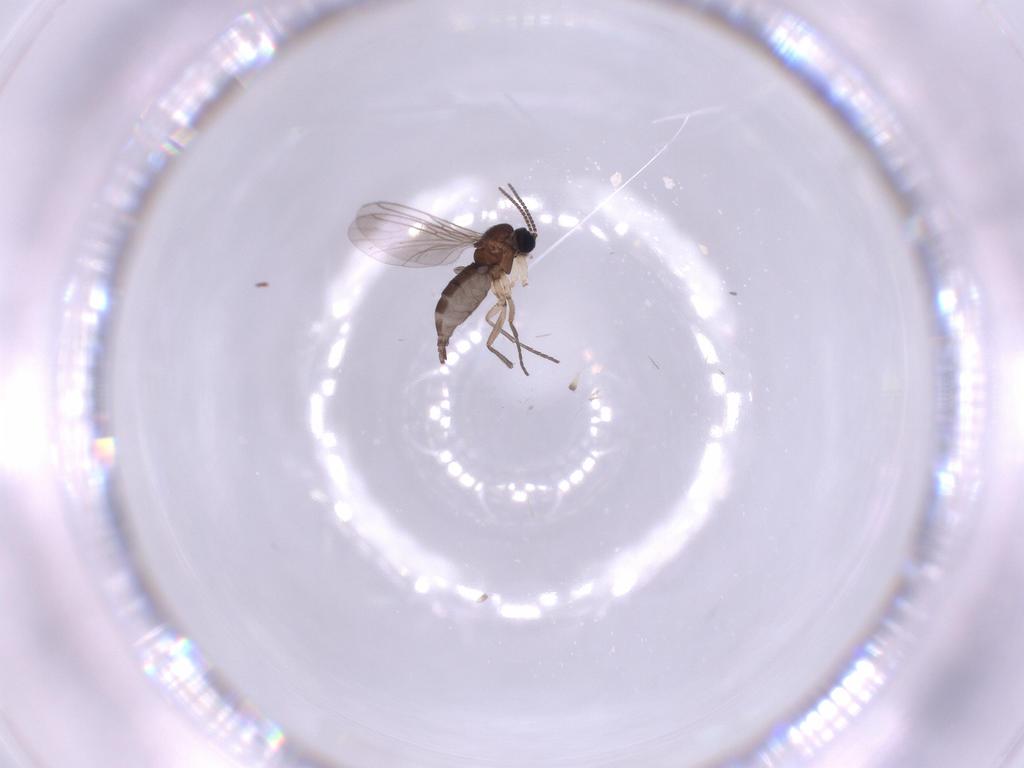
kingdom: Animalia
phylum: Arthropoda
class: Insecta
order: Diptera
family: Sciaridae
